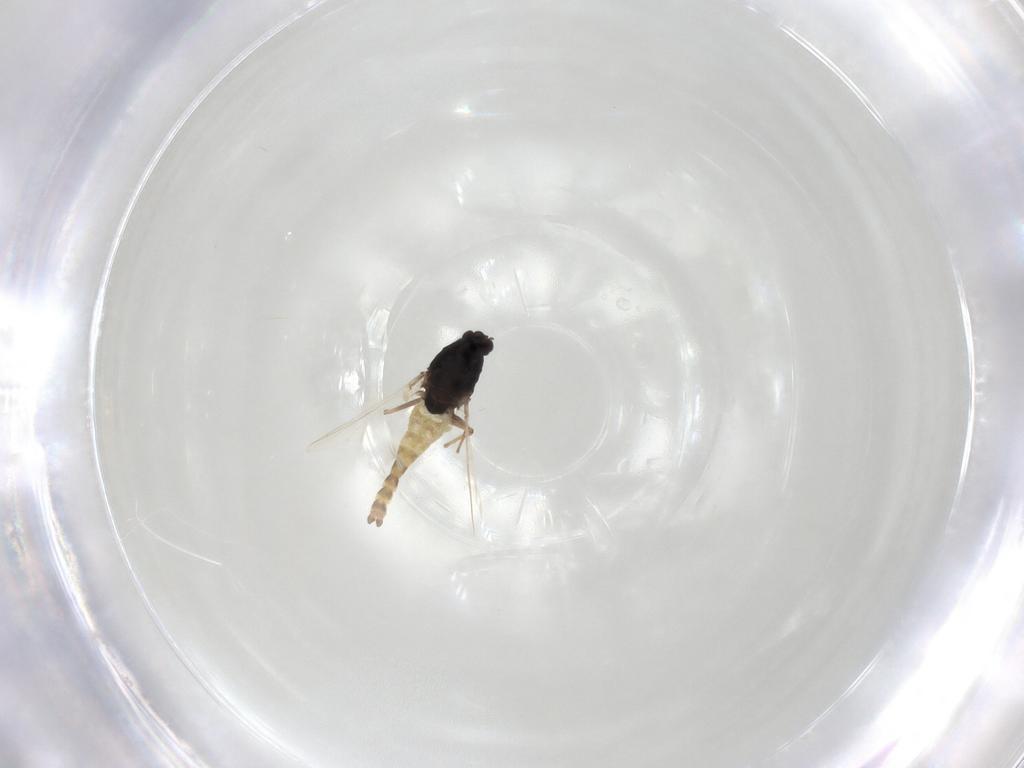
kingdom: Animalia
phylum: Arthropoda
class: Insecta
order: Diptera
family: Chironomidae
